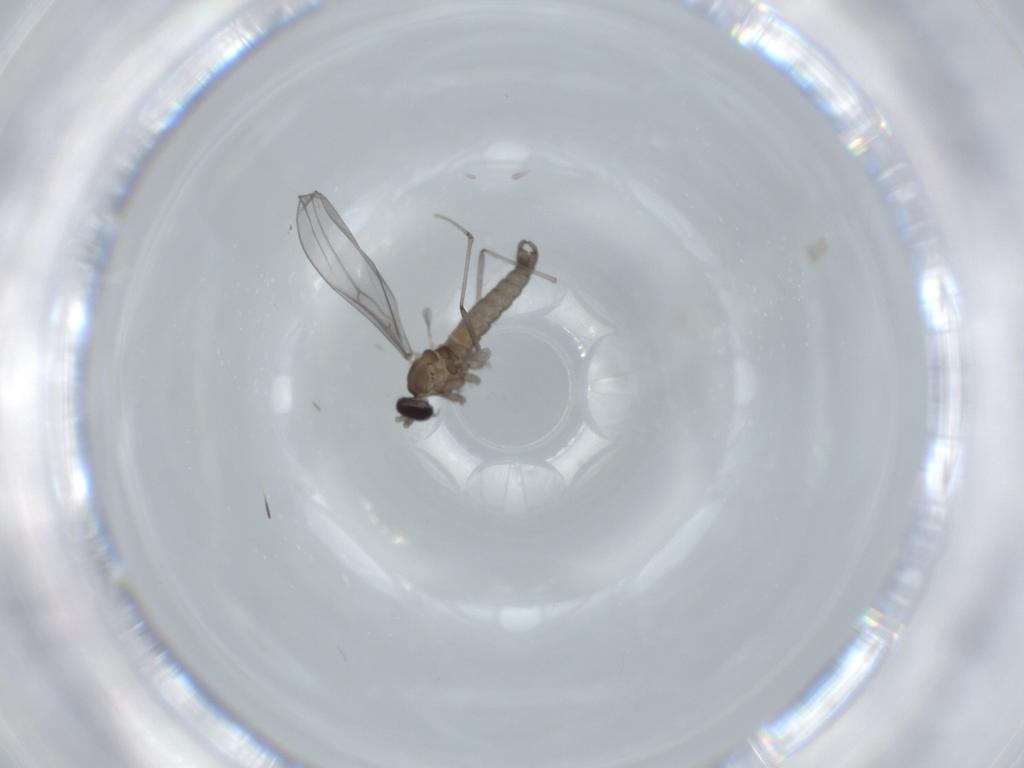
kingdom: Animalia
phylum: Arthropoda
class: Insecta
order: Diptera
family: Cecidomyiidae
